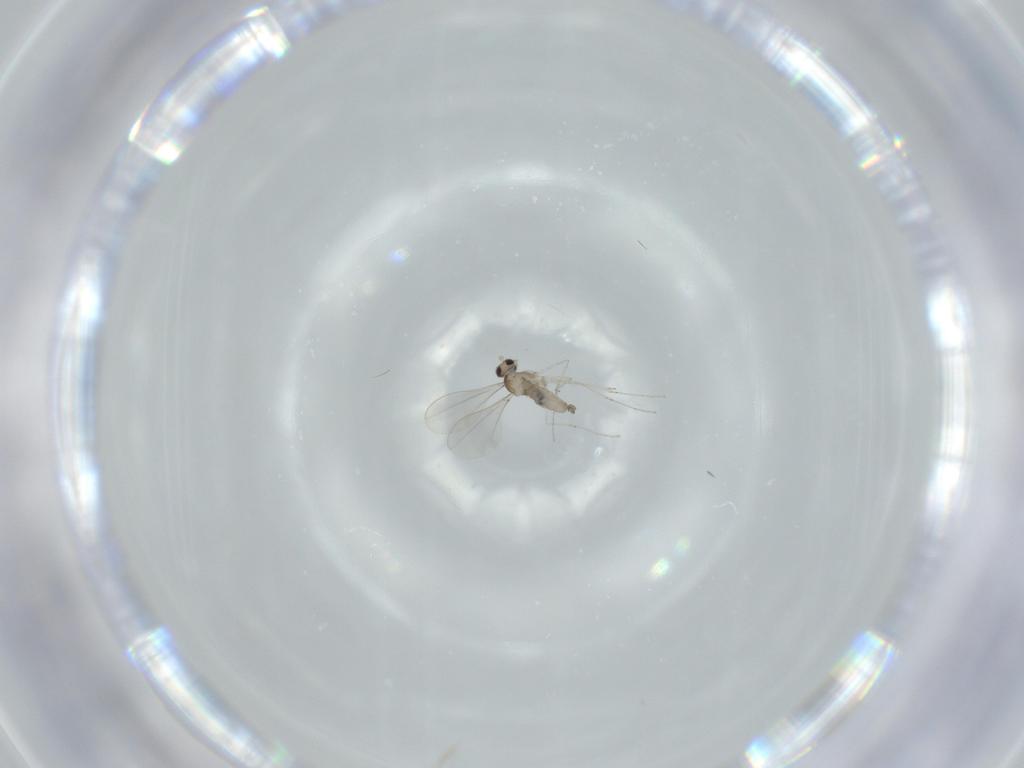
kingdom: Animalia
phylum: Arthropoda
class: Insecta
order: Diptera
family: Cecidomyiidae
